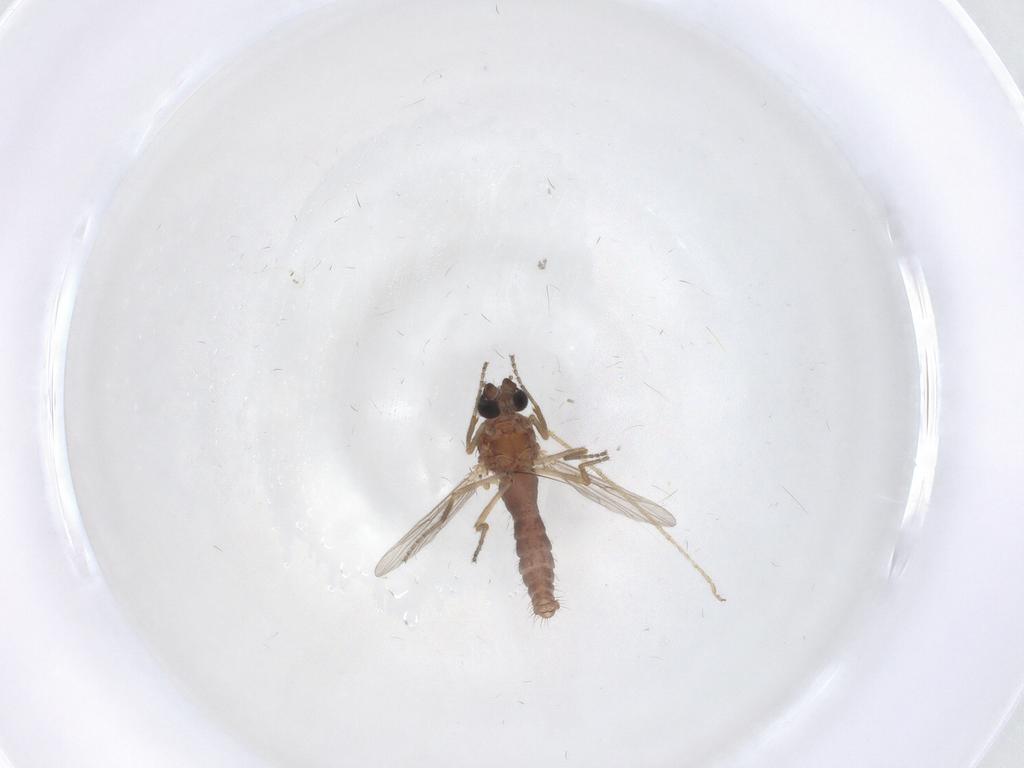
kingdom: Animalia
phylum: Arthropoda
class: Insecta
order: Diptera
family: Ceratopogonidae
